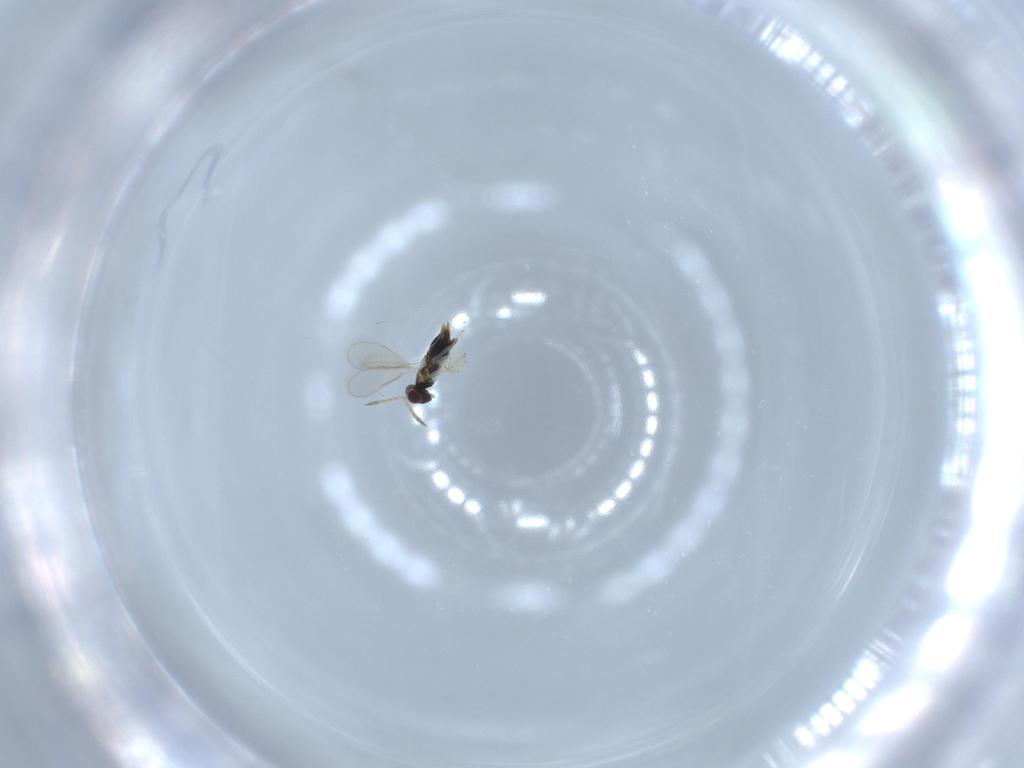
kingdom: Animalia
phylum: Arthropoda
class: Insecta
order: Hymenoptera
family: Aphelinidae
